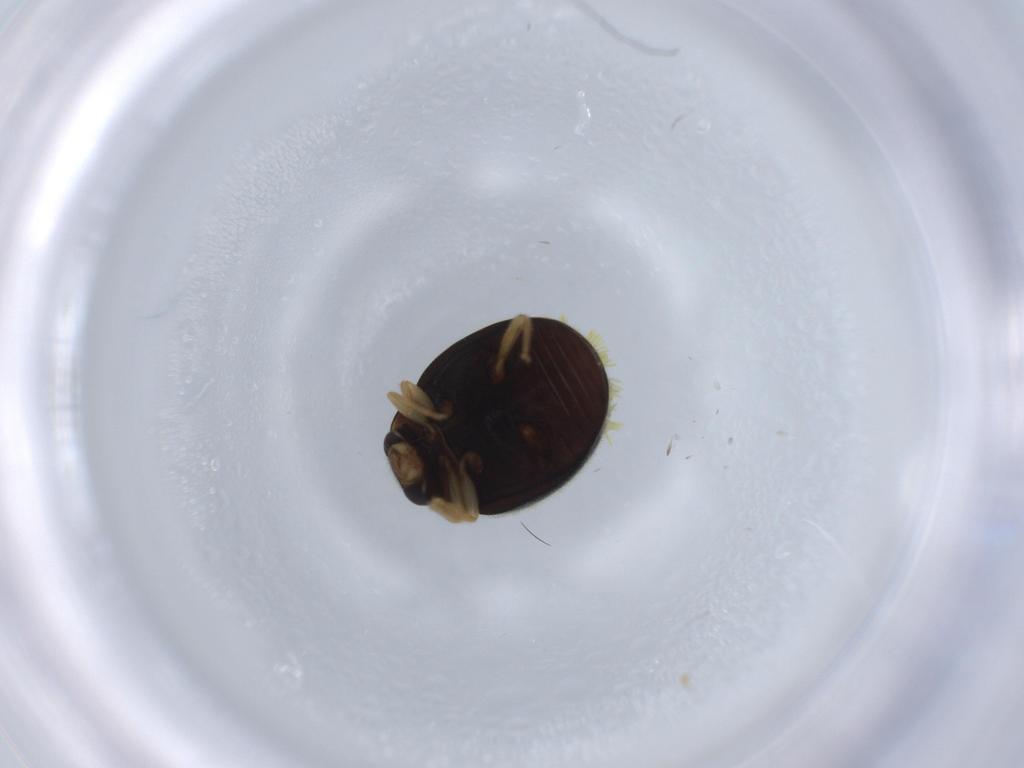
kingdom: Animalia
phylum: Arthropoda
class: Insecta
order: Coleoptera
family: Coccinellidae
